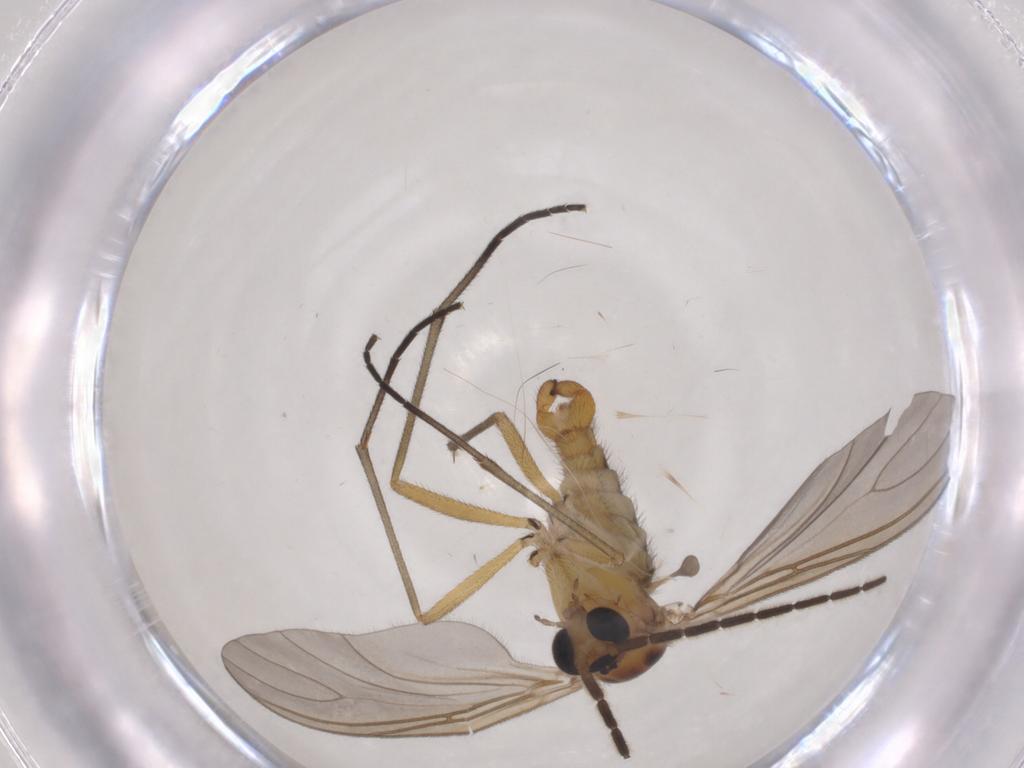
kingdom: Animalia
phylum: Arthropoda
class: Insecta
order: Diptera
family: Sciaridae
